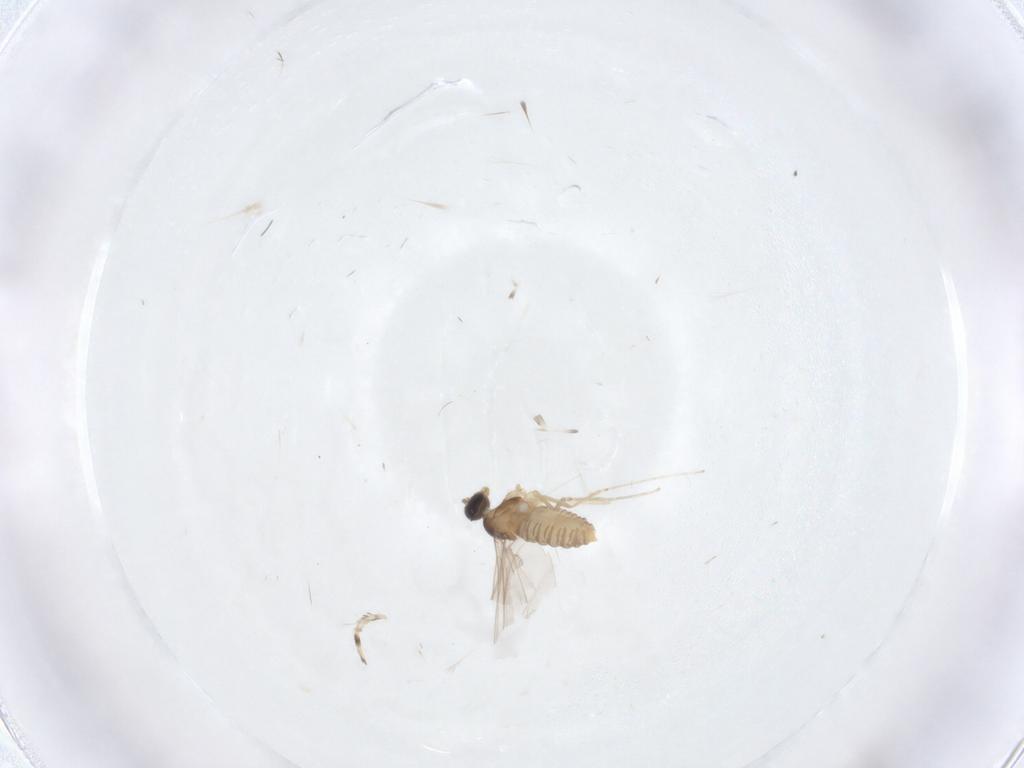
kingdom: Animalia
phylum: Arthropoda
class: Insecta
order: Diptera
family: Cecidomyiidae
